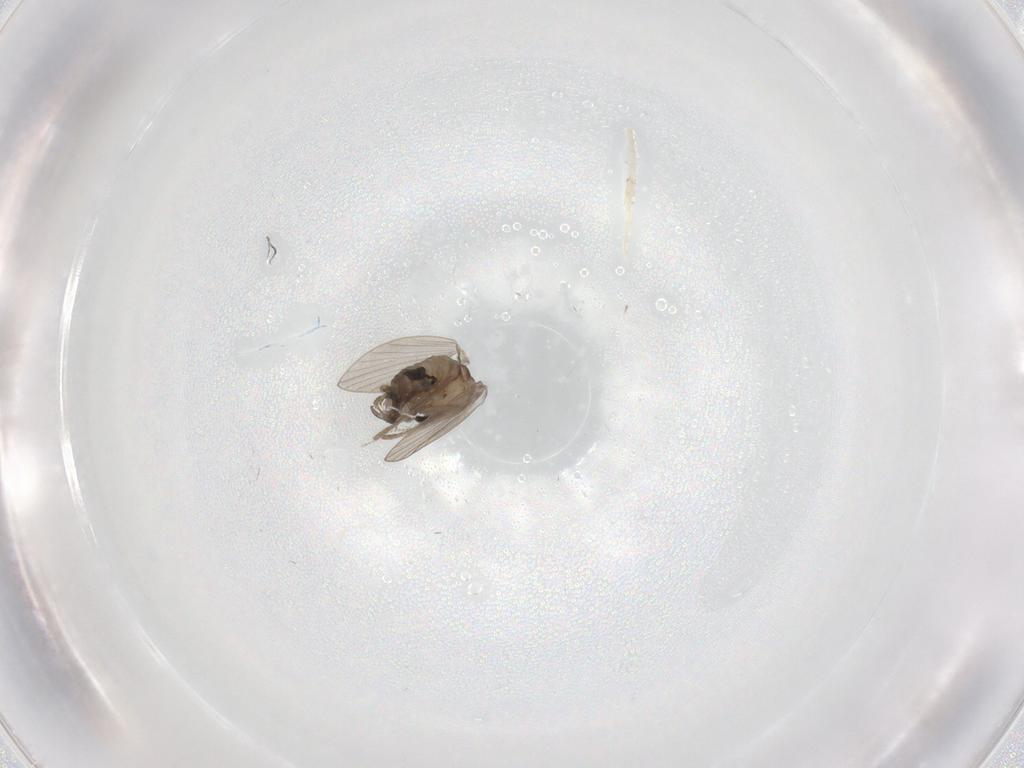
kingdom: Animalia
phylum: Arthropoda
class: Insecta
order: Diptera
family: Psychodidae
